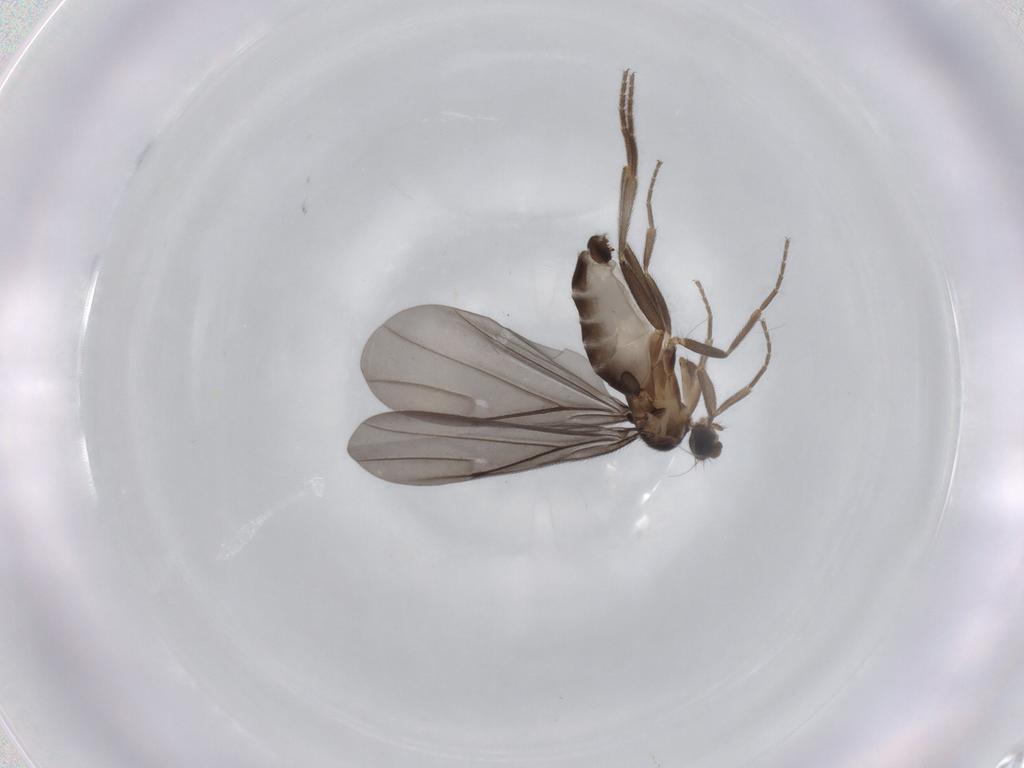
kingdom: Animalia
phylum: Arthropoda
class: Insecta
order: Diptera
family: Phoridae
